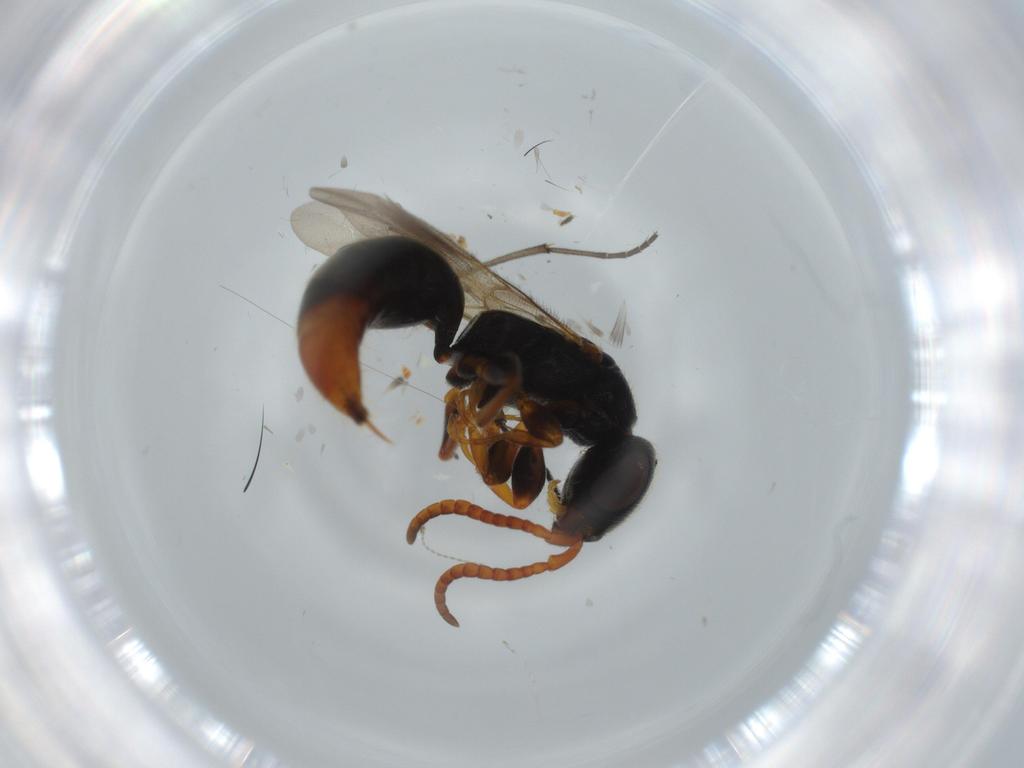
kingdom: Animalia
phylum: Arthropoda
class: Insecta
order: Hymenoptera
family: Bethylidae
